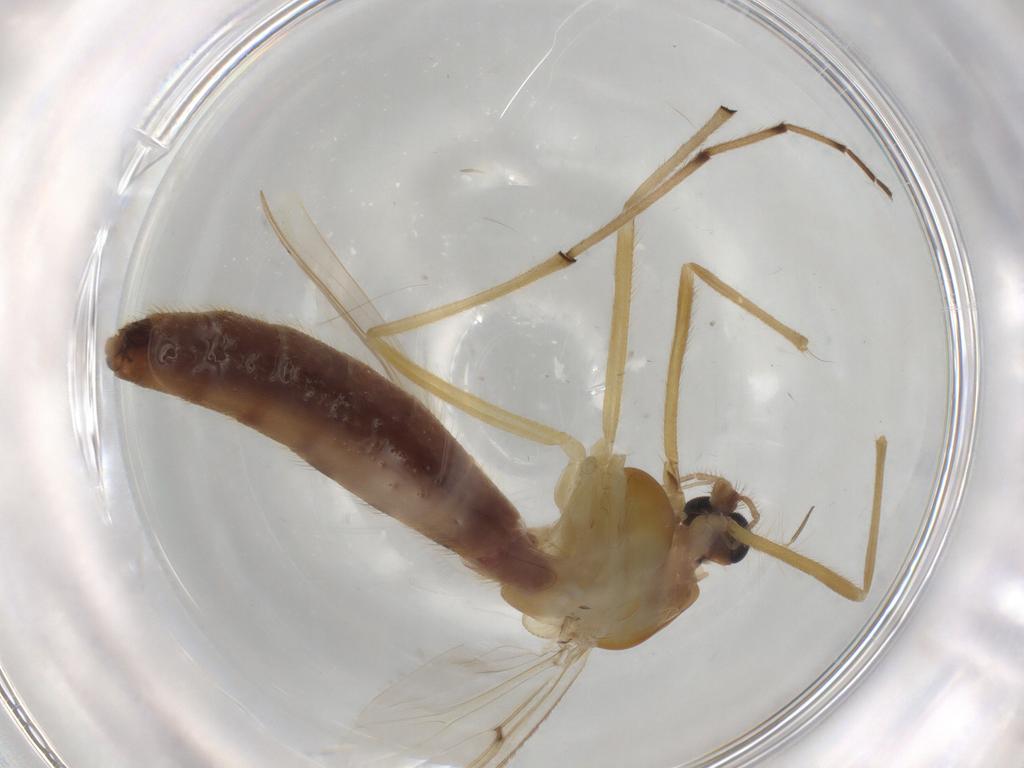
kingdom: Animalia
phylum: Arthropoda
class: Insecta
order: Diptera
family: Chironomidae
